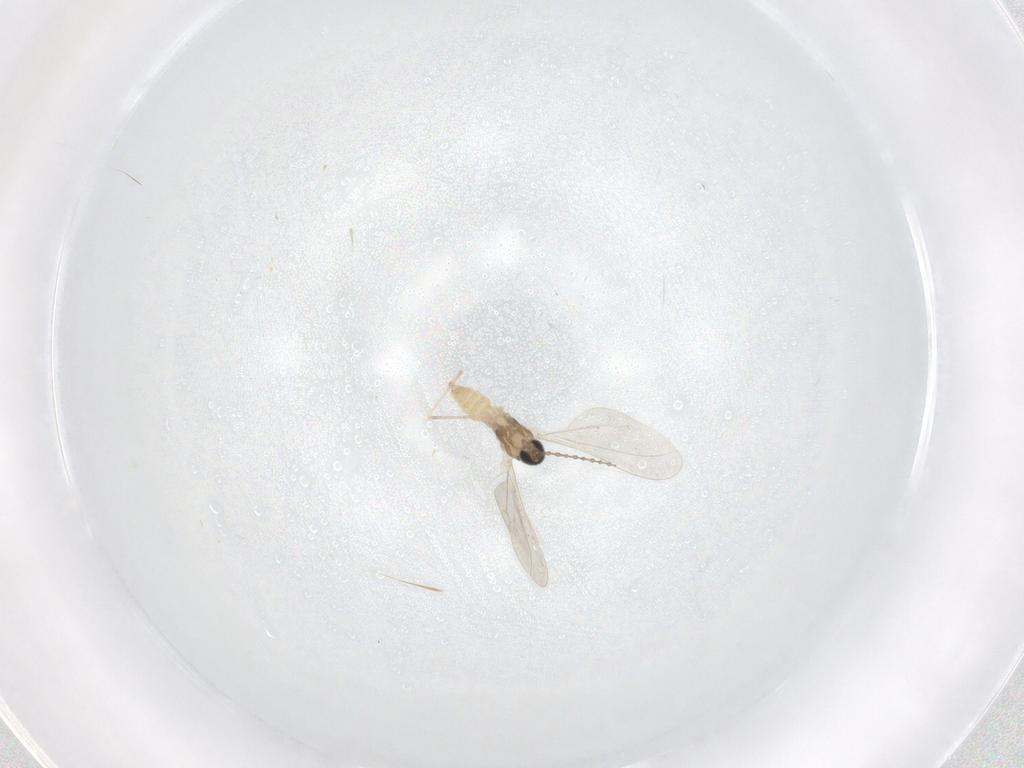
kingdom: Animalia
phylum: Arthropoda
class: Insecta
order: Diptera
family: Cecidomyiidae
